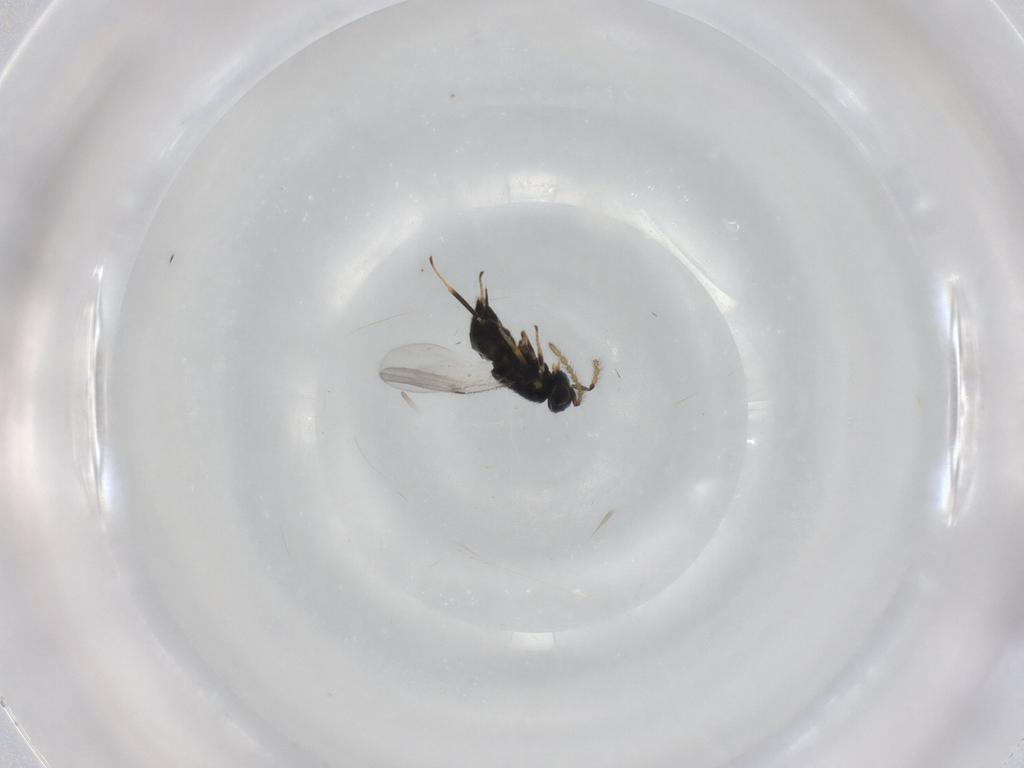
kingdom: Animalia
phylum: Arthropoda
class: Insecta
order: Hymenoptera
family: Encyrtidae
